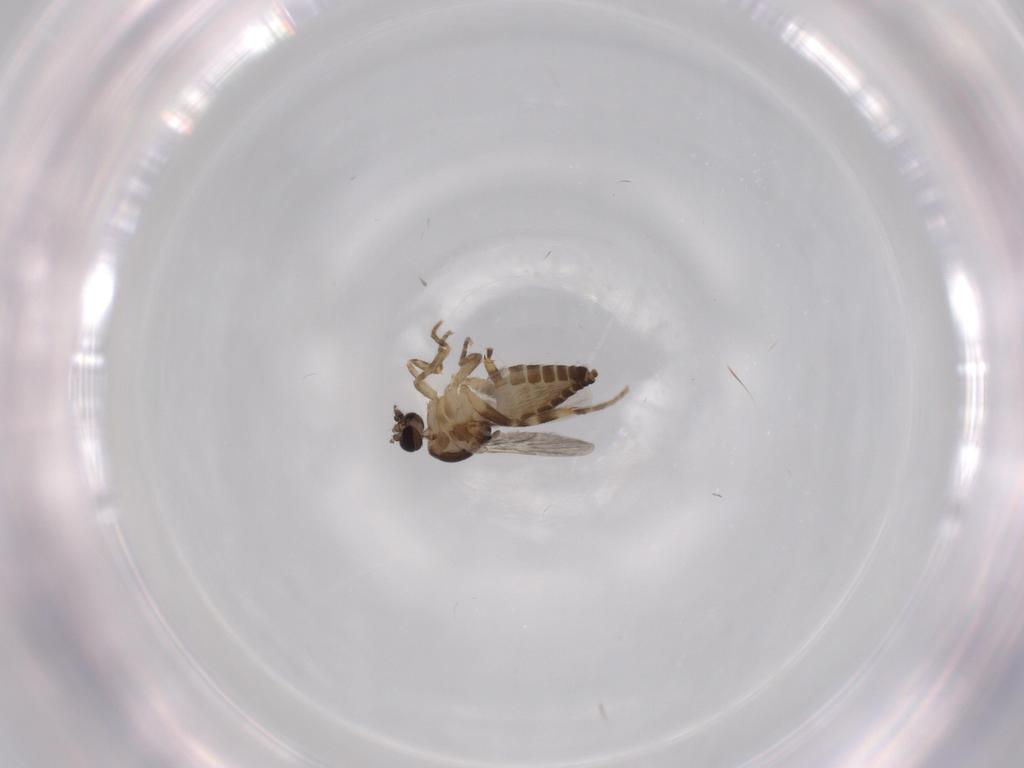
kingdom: Animalia
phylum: Arthropoda
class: Insecta
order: Diptera
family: Ceratopogonidae
